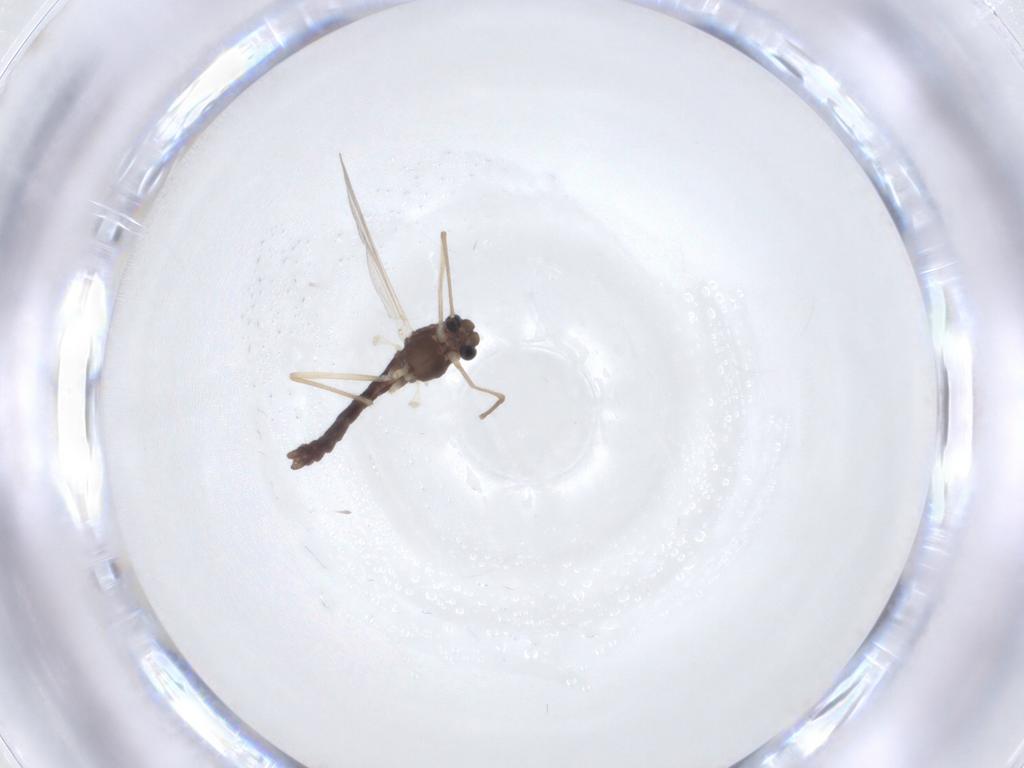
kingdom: Animalia
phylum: Arthropoda
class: Insecta
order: Diptera
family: Chironomidae
